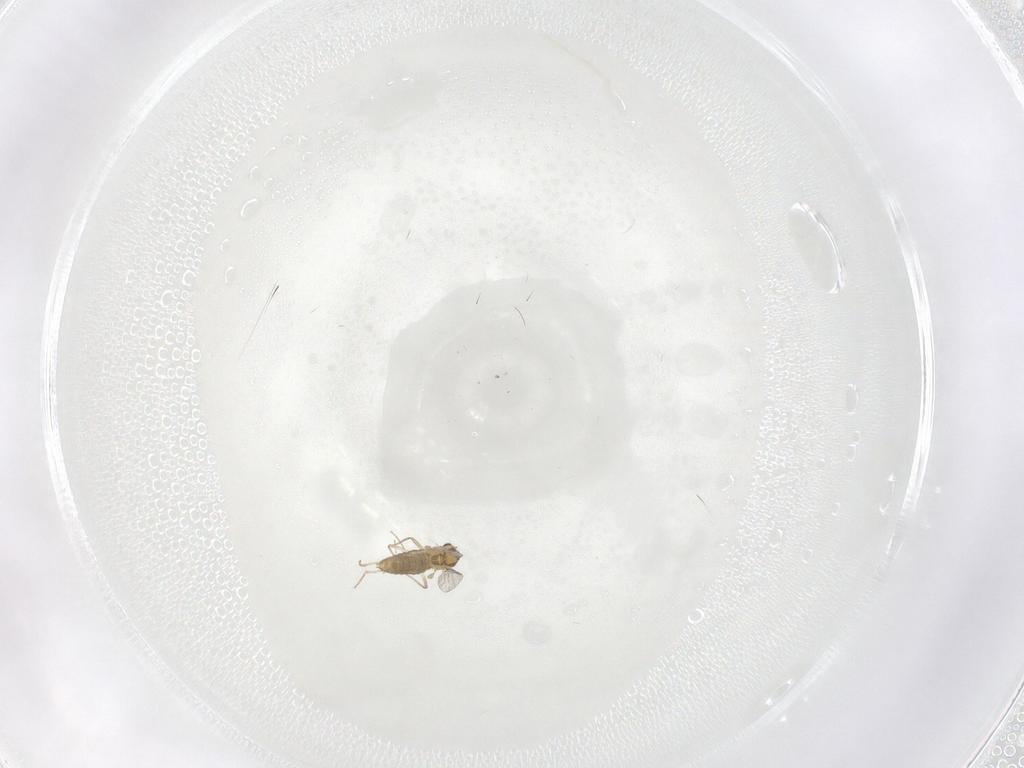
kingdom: Animalia
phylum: Arthropoda
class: Insecta
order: Diptera
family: Chironomidae
